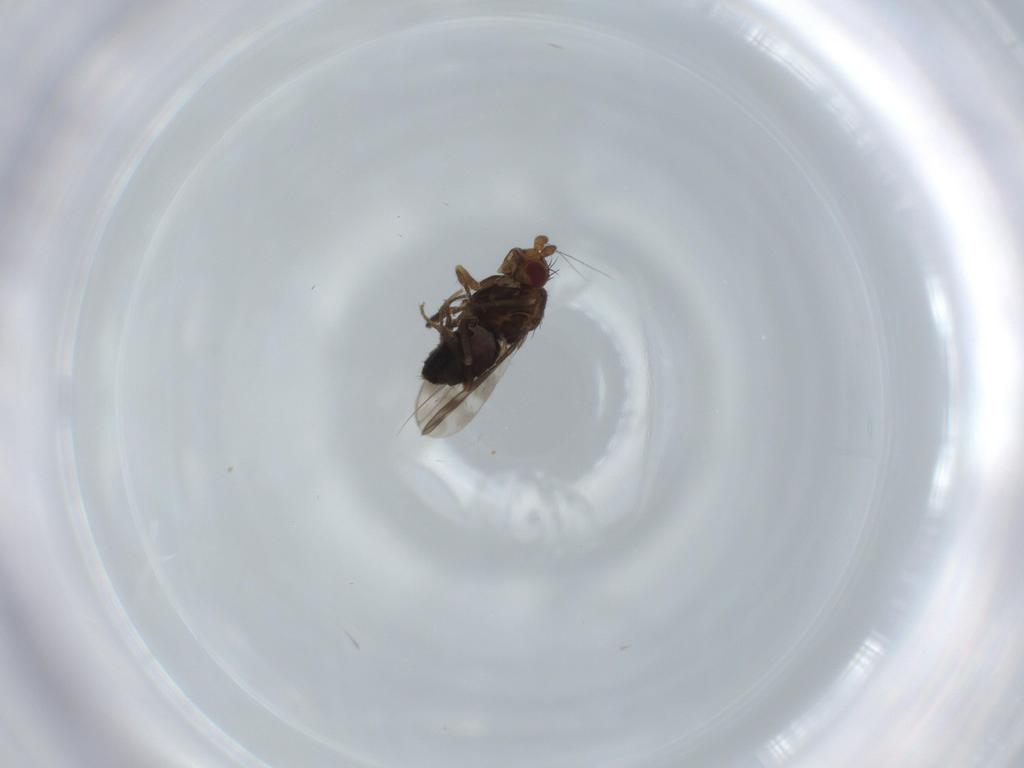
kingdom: Animalia
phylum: Arthropoda
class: Insecta
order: Diptera
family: Sphaeroceridae
